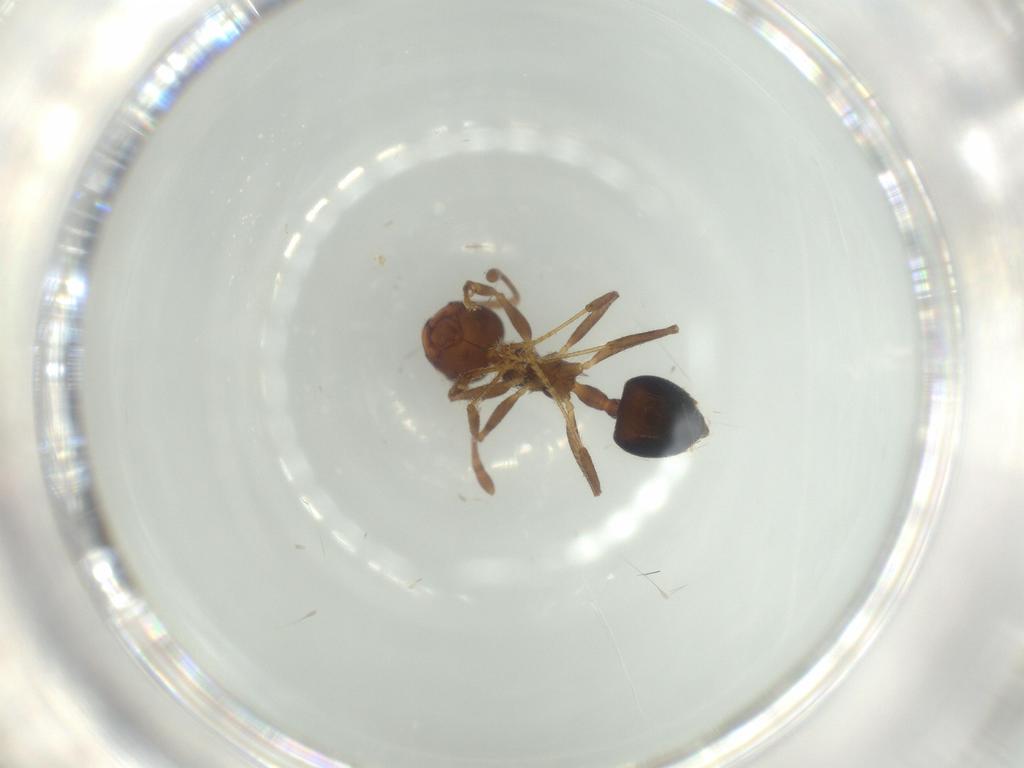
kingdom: Animalia
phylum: Arthropoda
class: Insecta
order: Hymenoptera
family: Formicidae
